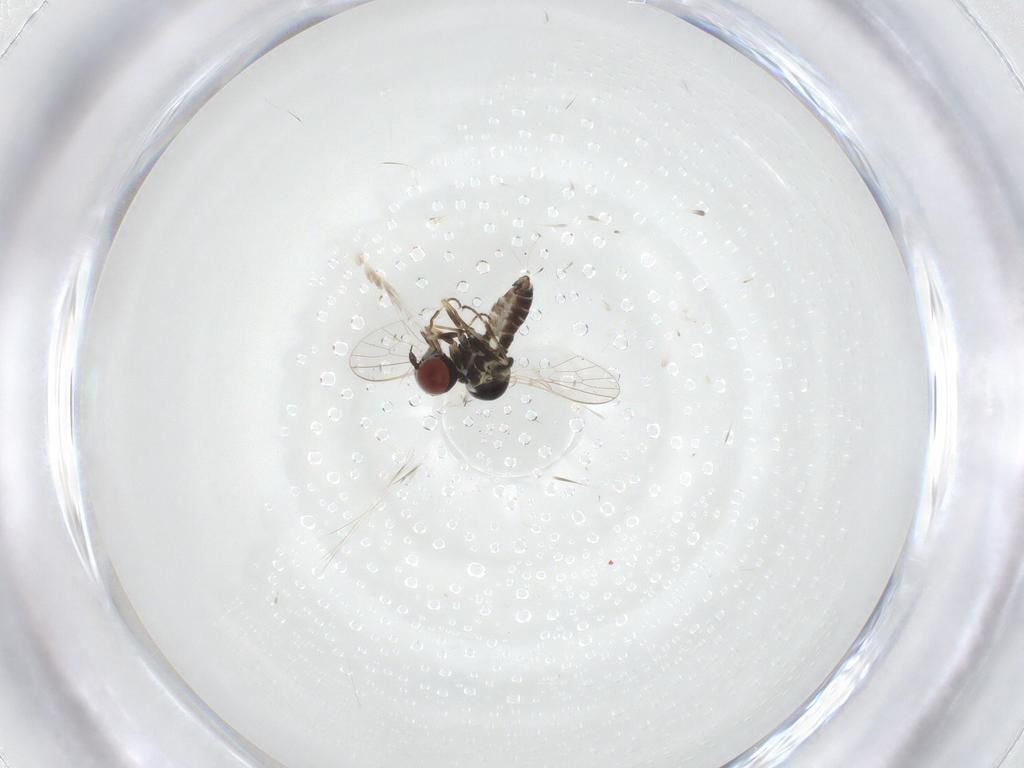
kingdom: Animalia
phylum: Arthropoda
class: Insecta
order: Diptera
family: Bombyliidae
